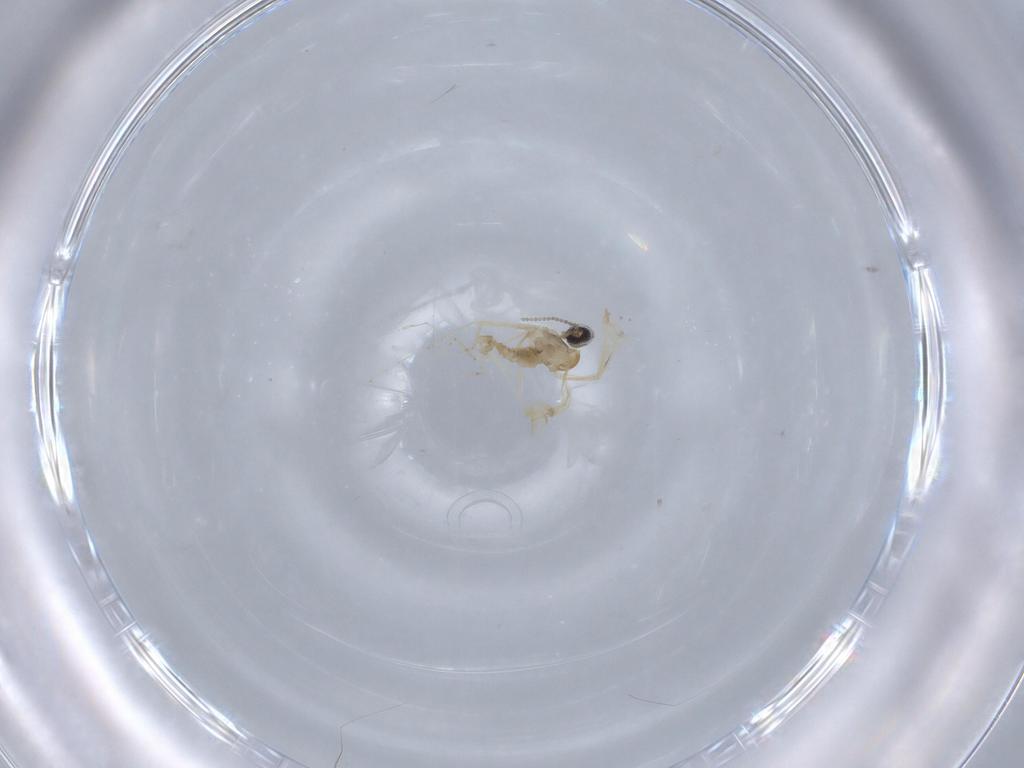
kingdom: Animalia
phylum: Arthropoda
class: Insecta
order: Diptera
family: Cecidomyiidae
